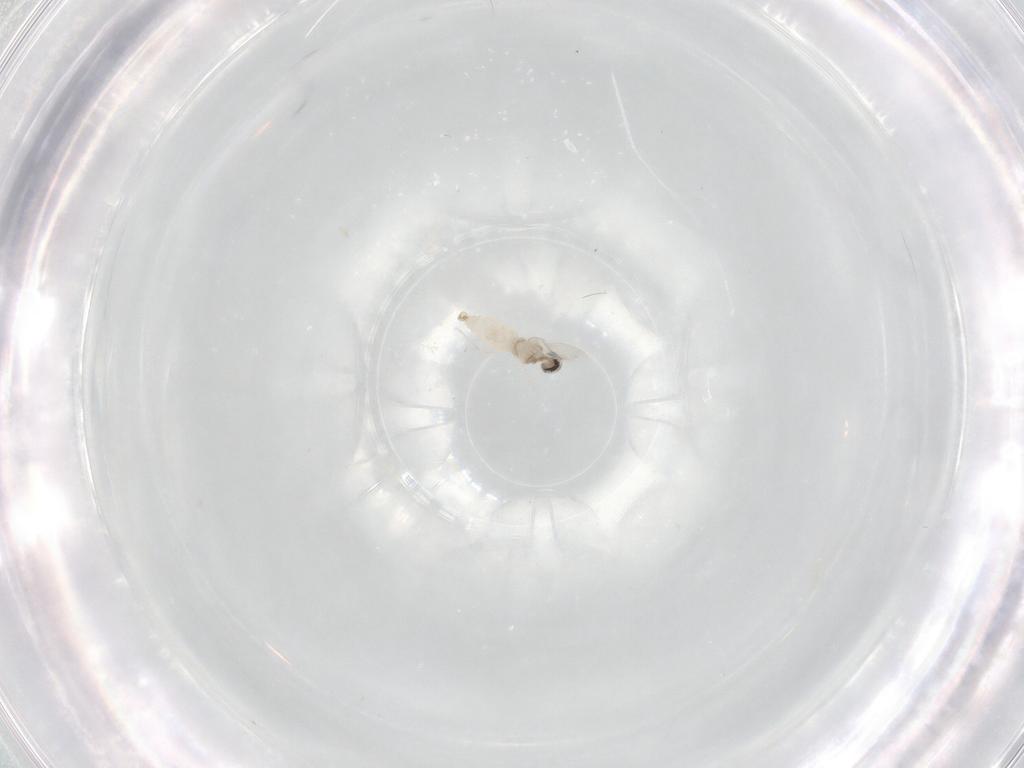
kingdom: Animalia
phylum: Arthropoda
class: Insecta
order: Diptera
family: Cecidomyiidae
